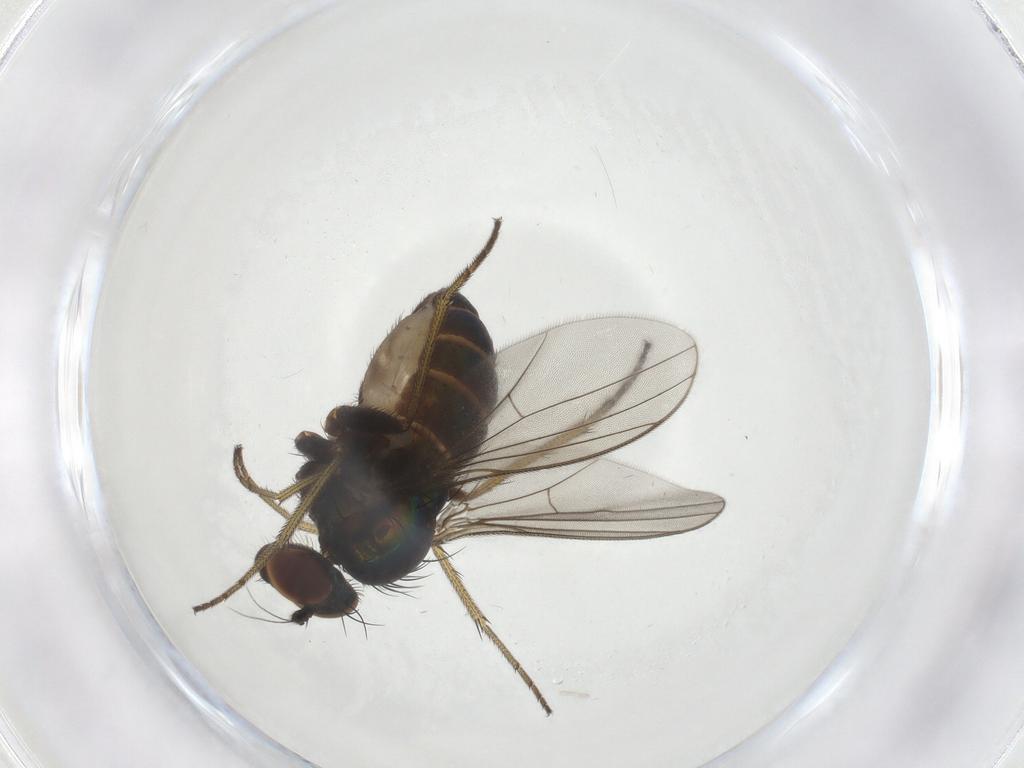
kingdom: Animalia
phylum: Arthropoda
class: Insecta
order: Diptera
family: Dolichopodidae
